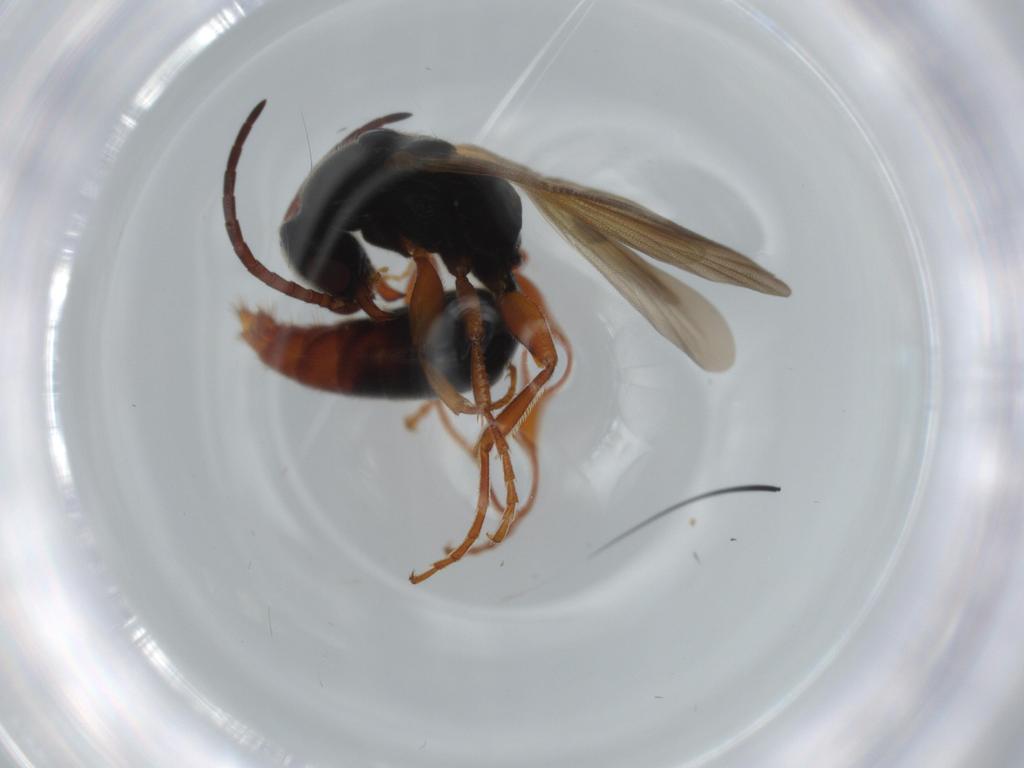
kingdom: Animalia
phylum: Arthropoda
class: Insecta
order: Hymenoptera
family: Bethylidae
